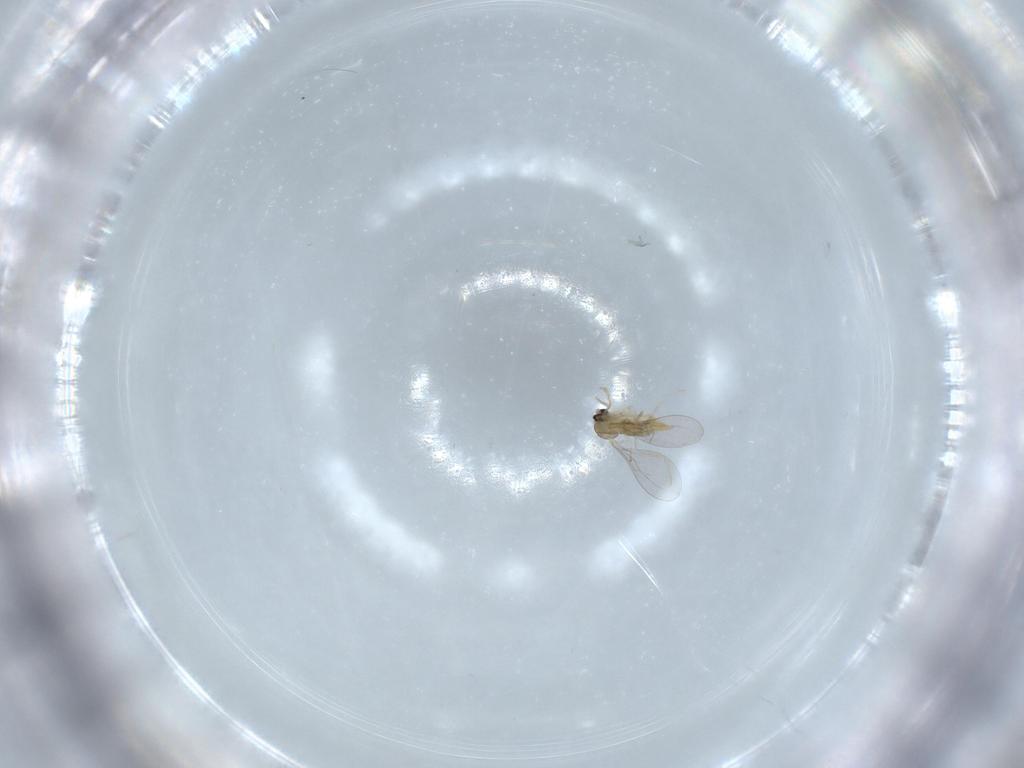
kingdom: Animalia
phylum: Arthropoda
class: Insecta
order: Diptera
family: Cecidomyiidae
